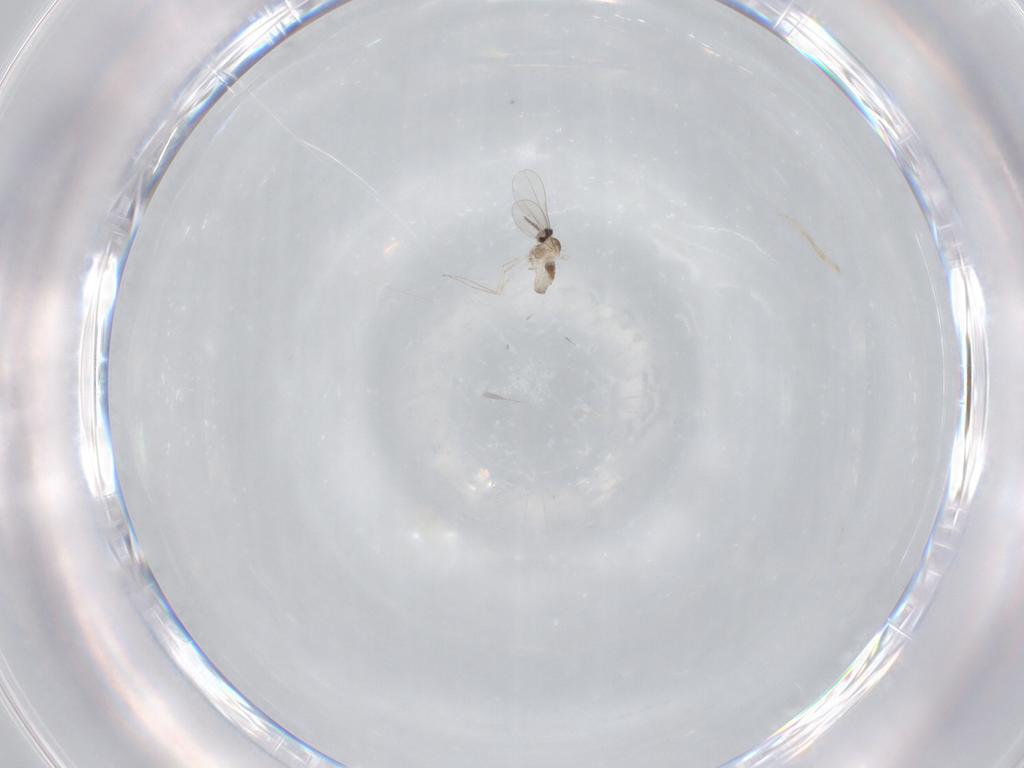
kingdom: Animalia
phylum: Arthropoda
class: Insecta
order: Diptera
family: Cecidomyiidae
